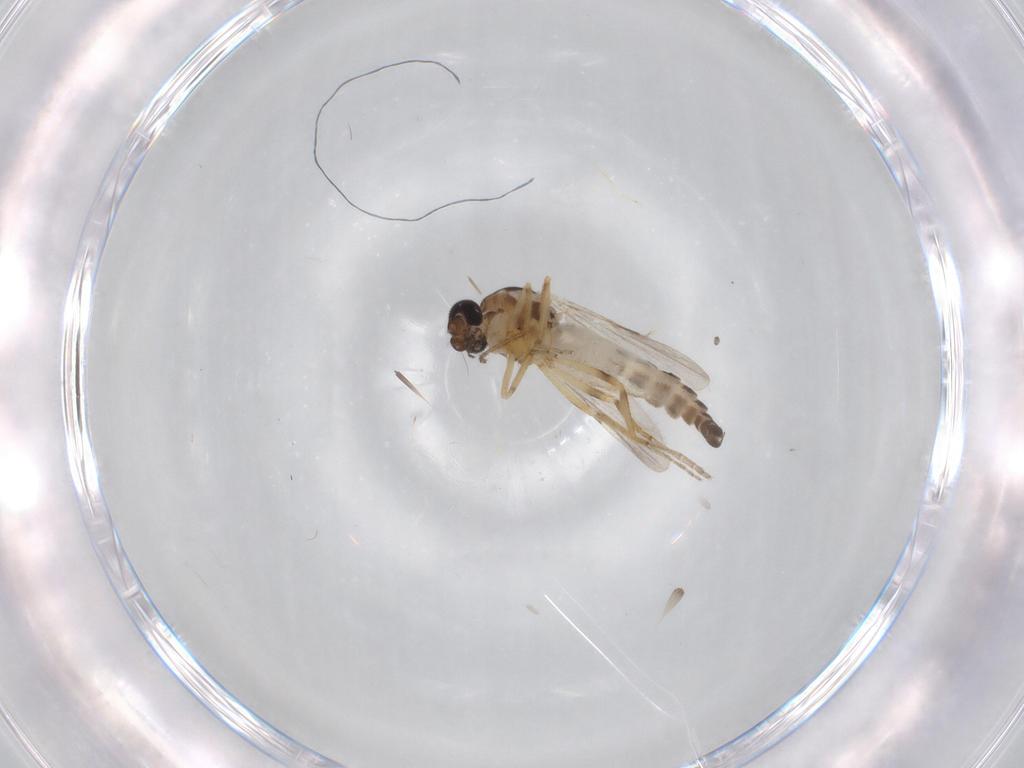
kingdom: Animalia
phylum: Arthropoda
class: Insecta
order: Diptera
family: Ceratopogonidae
